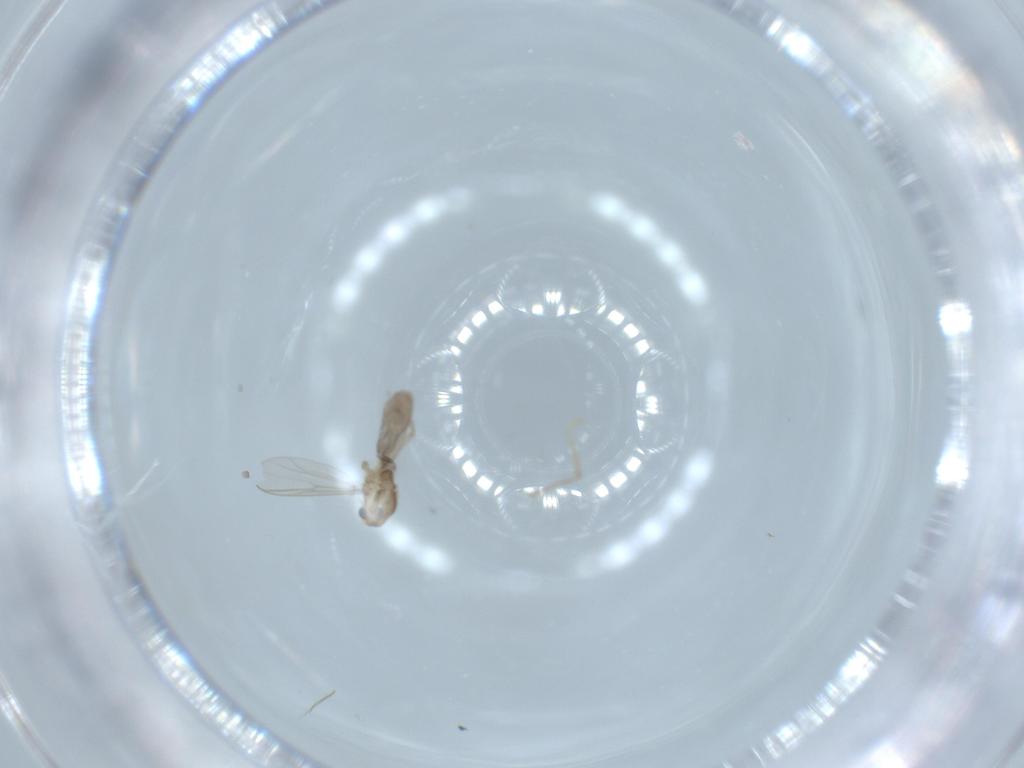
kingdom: Animalia
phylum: Arthropoda
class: Insecta
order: Diptera
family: Chironomidae
